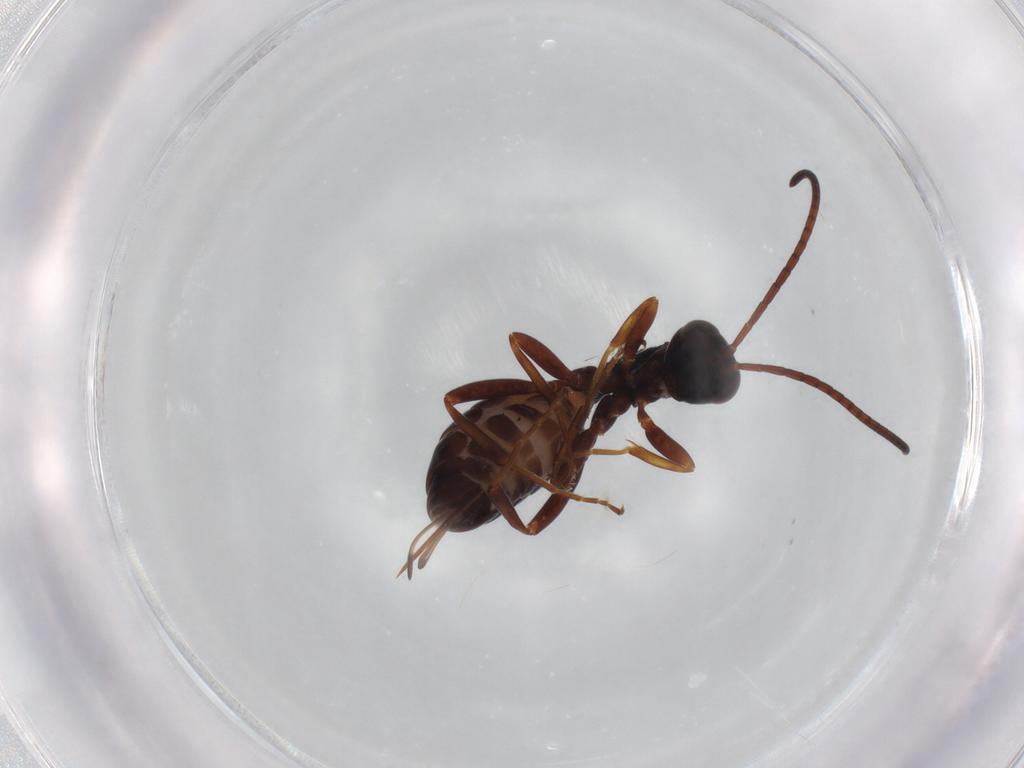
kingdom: Animalia
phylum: Arthropoda
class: Insecta
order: Hymenoptera
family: Ichneumonidae
